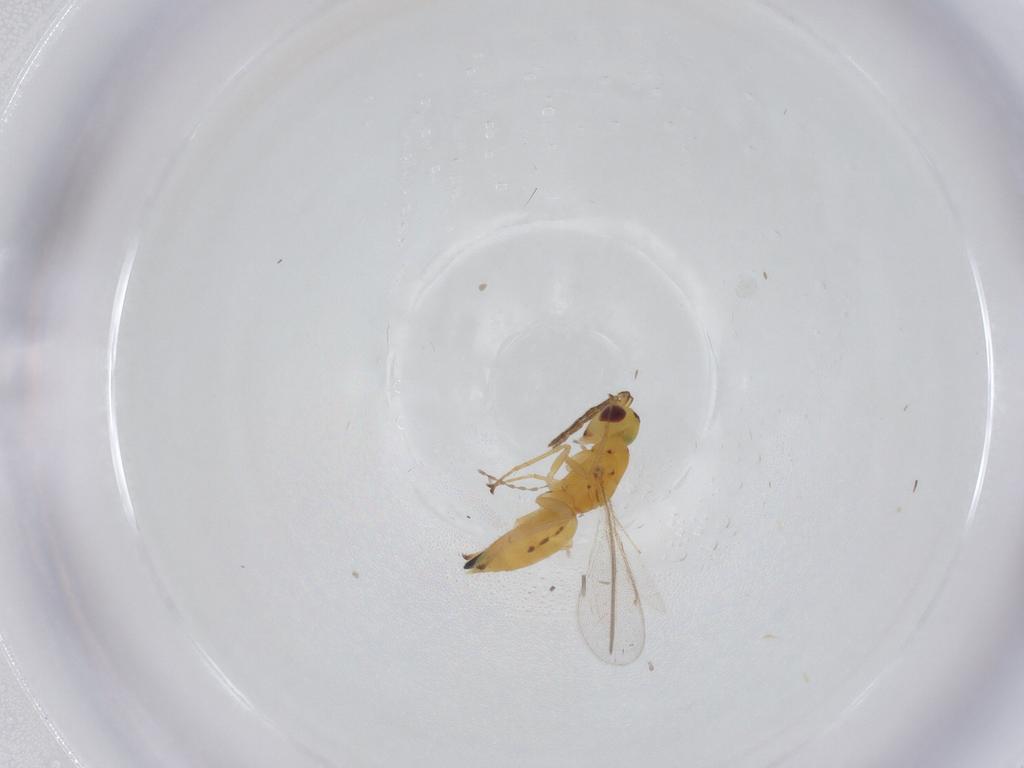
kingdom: Animalia
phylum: Arthropoda
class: Insecta
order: Hymenoptera
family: Eulophidae
